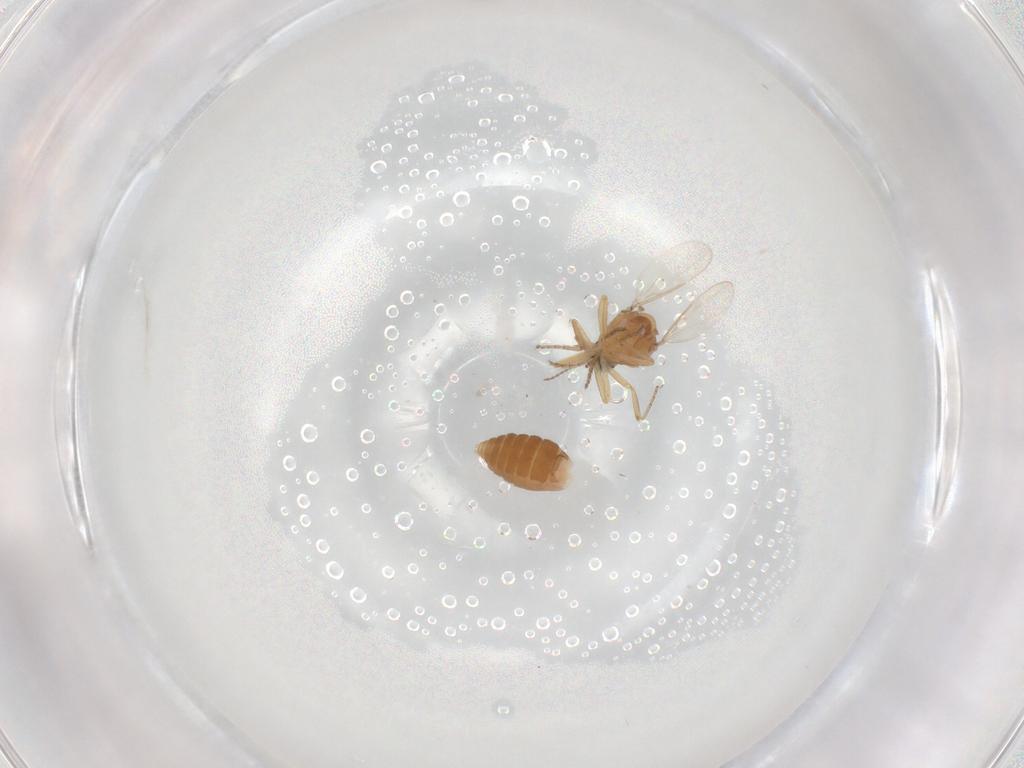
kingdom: Animalia
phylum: Arthropoda
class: Insecta
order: Diptera
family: Ceratopogonidae
